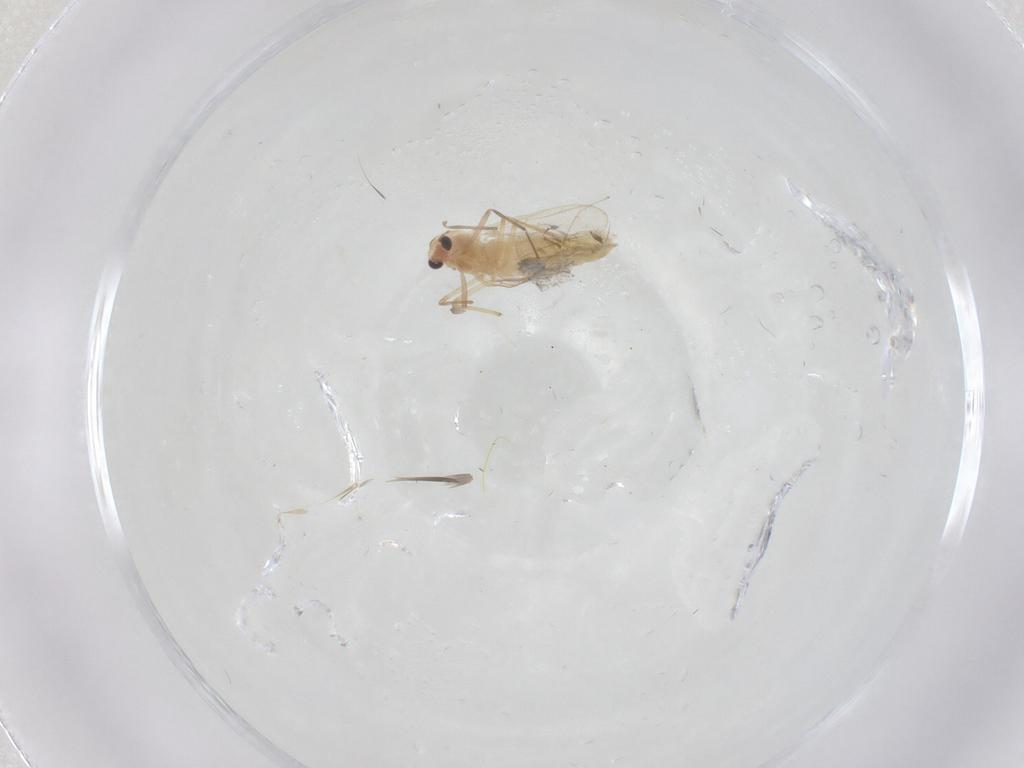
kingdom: Animalia
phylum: Arthropoda
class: Insecta
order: Diptera
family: Chironomidae
